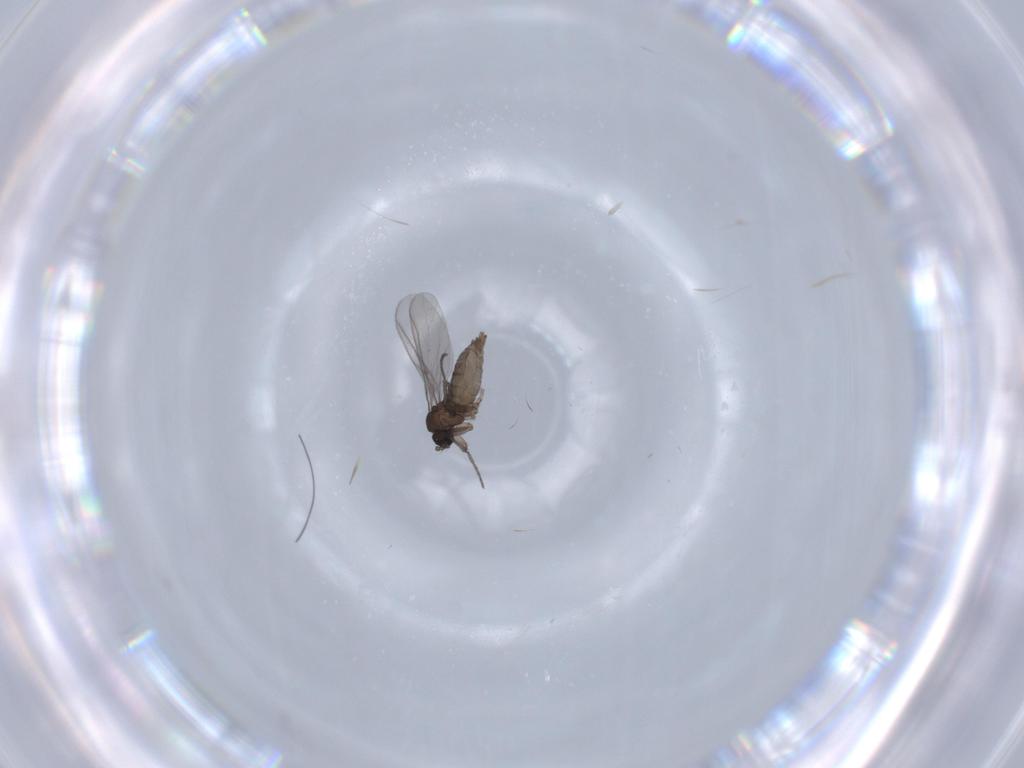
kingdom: Animalia
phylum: Arthropoda
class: Insecta
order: Diptera
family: Sciaridae
